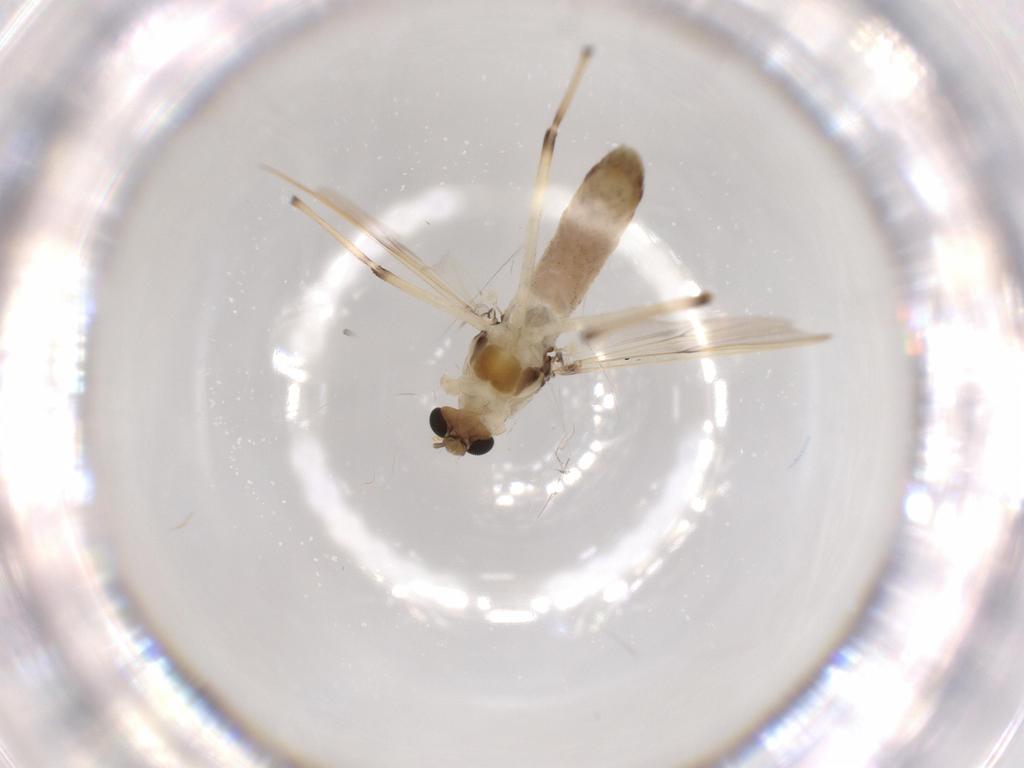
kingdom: Animalia
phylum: Arthropoda
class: Insecta
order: Diptera
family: Chironomidae
